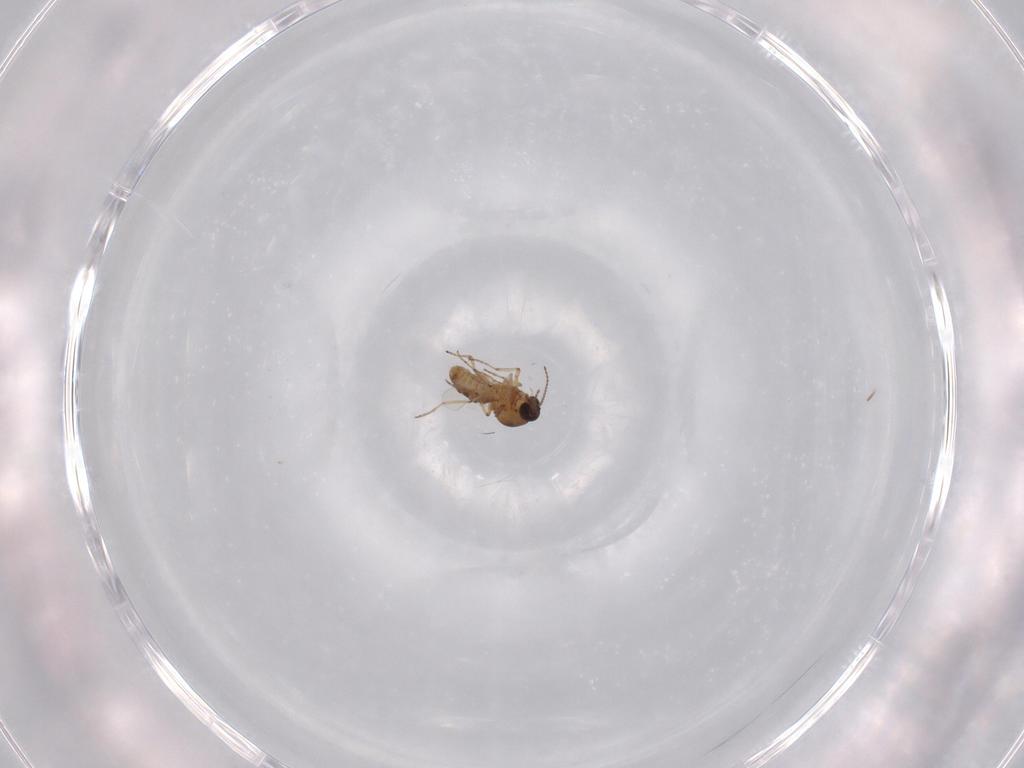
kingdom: Animalia
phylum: Arthropoda
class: Insecta
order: Diptera
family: Ceratopogonidae
